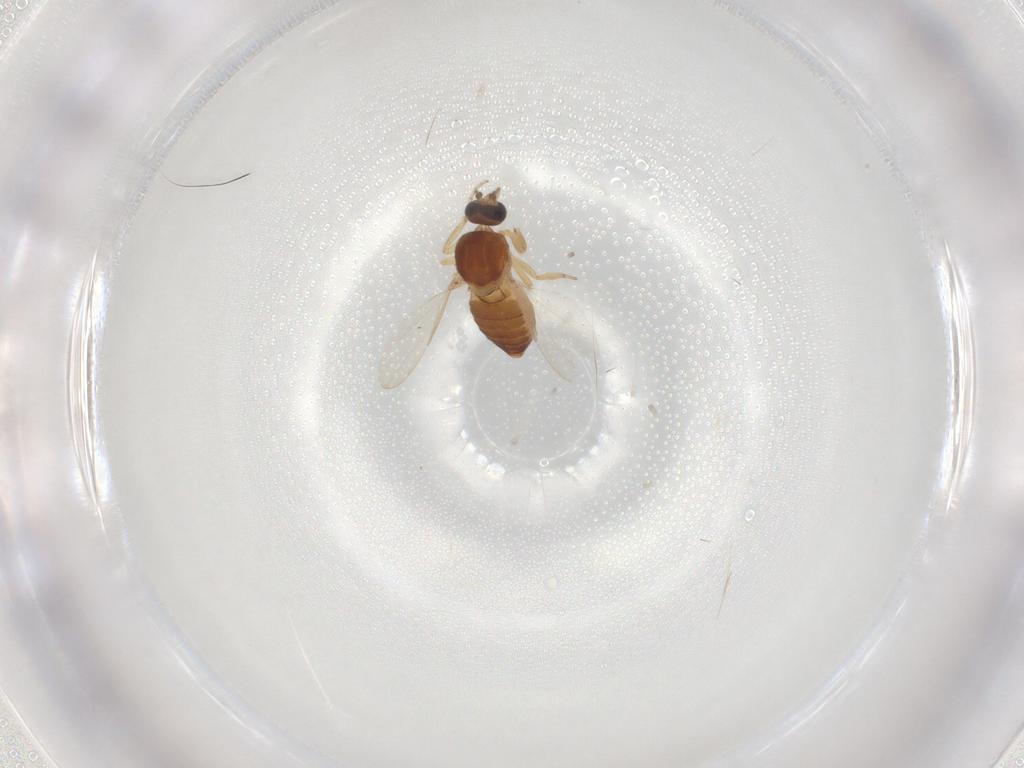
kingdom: Animalia
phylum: Arthropoda
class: Insecta
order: Diptera
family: Ceratopogonidae
